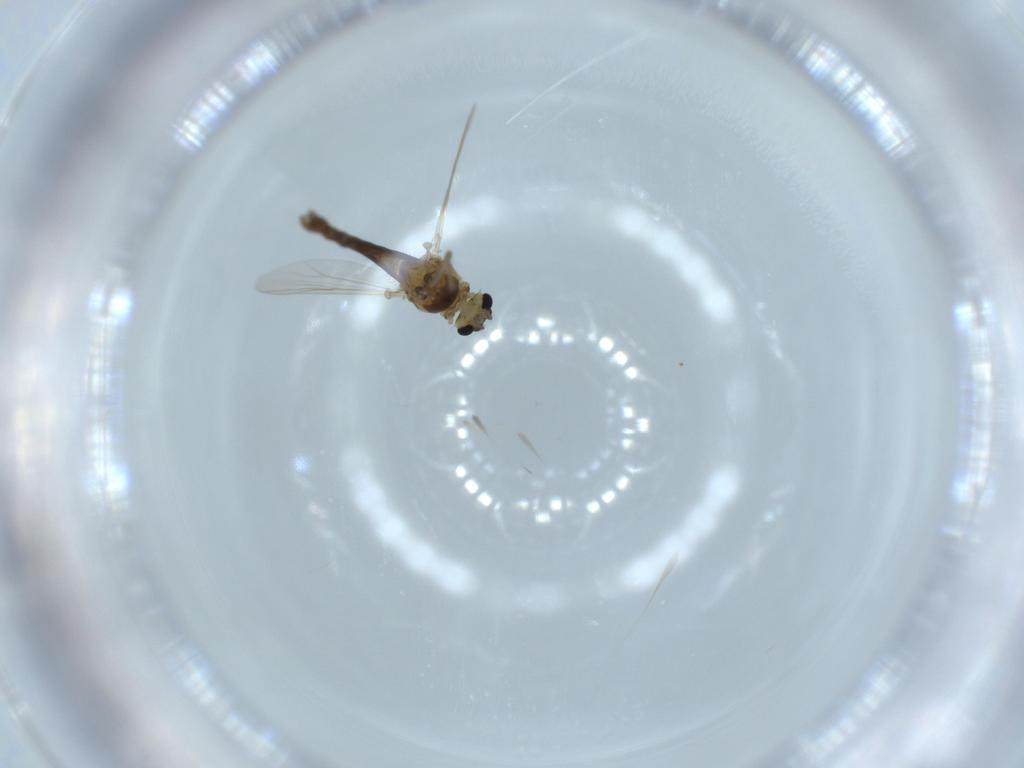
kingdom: Animalia
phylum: Arthropoda
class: Insecta
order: Diptera
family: Chironomidae
